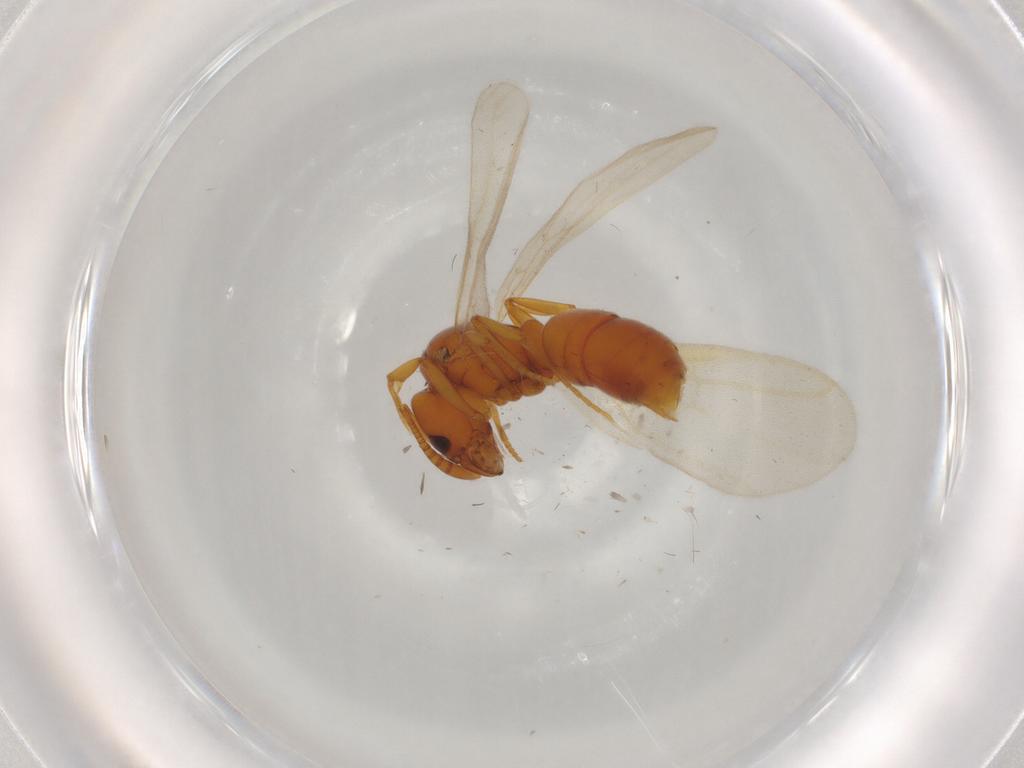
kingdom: Animalia
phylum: Arthropoda
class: Insecta
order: Hymenoptera
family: Formicidae
